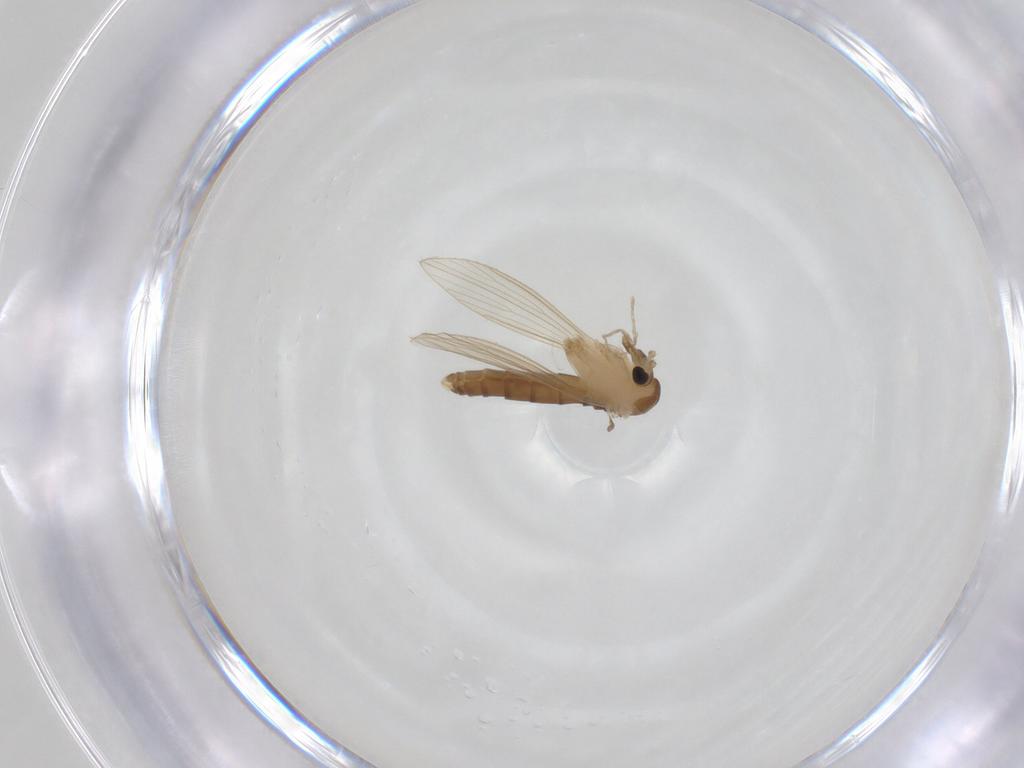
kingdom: Animalia
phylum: Arthropoda
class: Insecta
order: Diptera
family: Psychodidae
